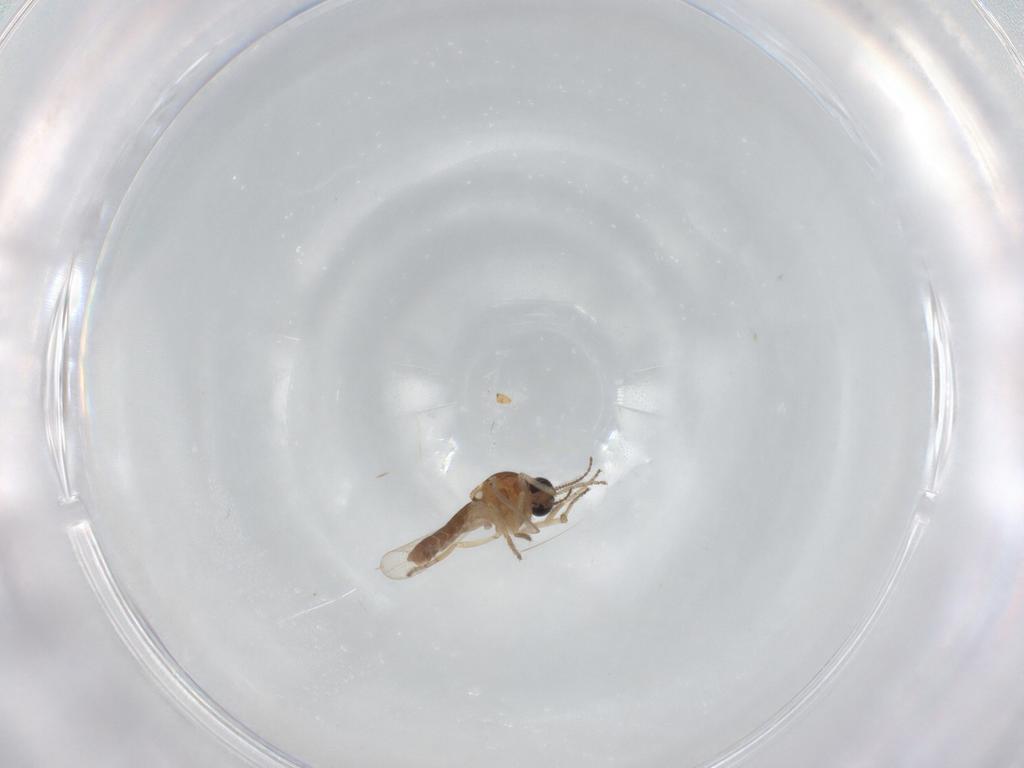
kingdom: Animalia
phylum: Arthropoda
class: Insecta
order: Diptera
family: Ceratopogonidae
